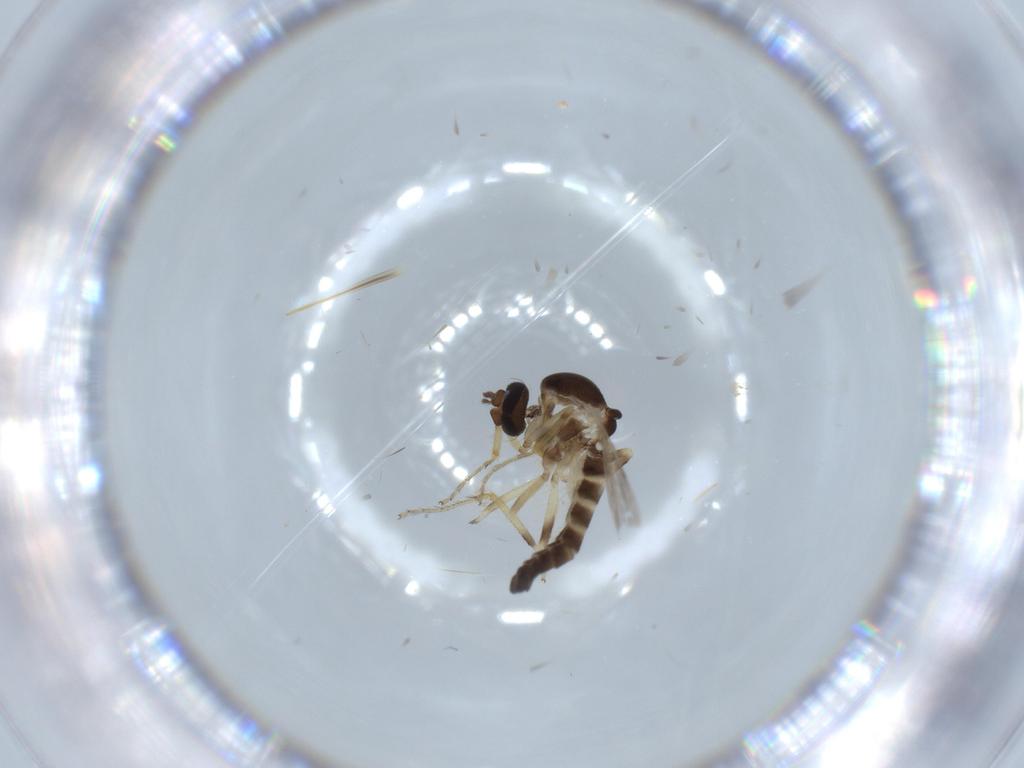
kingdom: Animalia
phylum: Arthropoda
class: Insecta
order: Diptera
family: Ceratopogonidae
